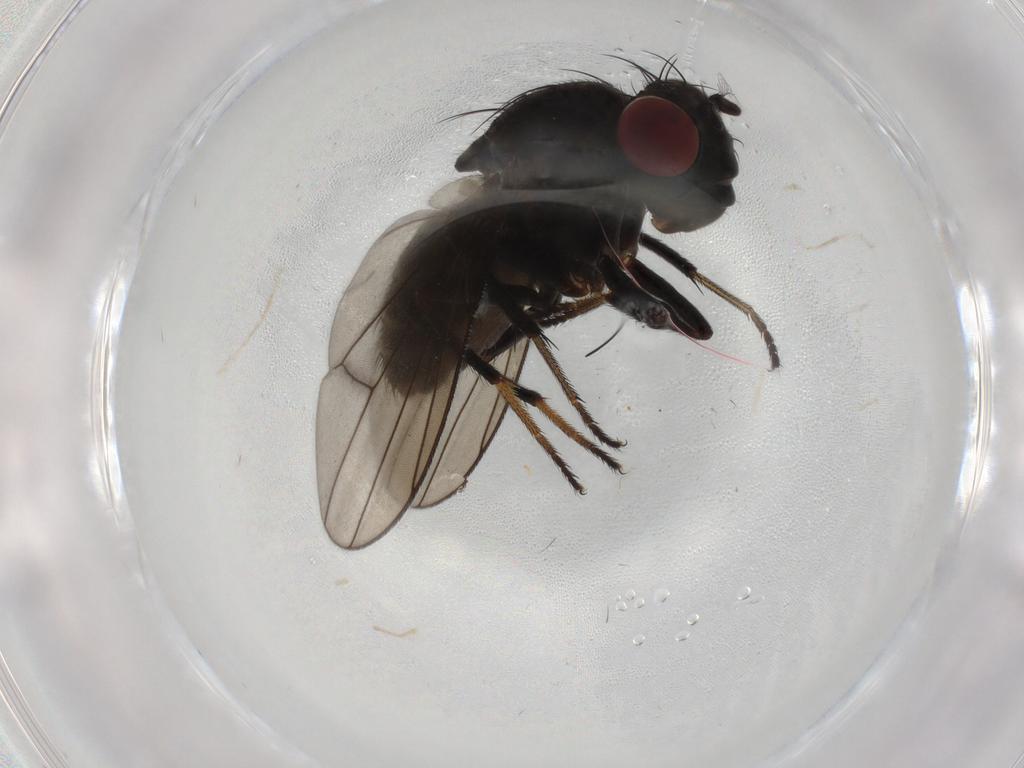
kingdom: Animalia
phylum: Arthropoda
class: Insecta
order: Diptera
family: Ephydridae
